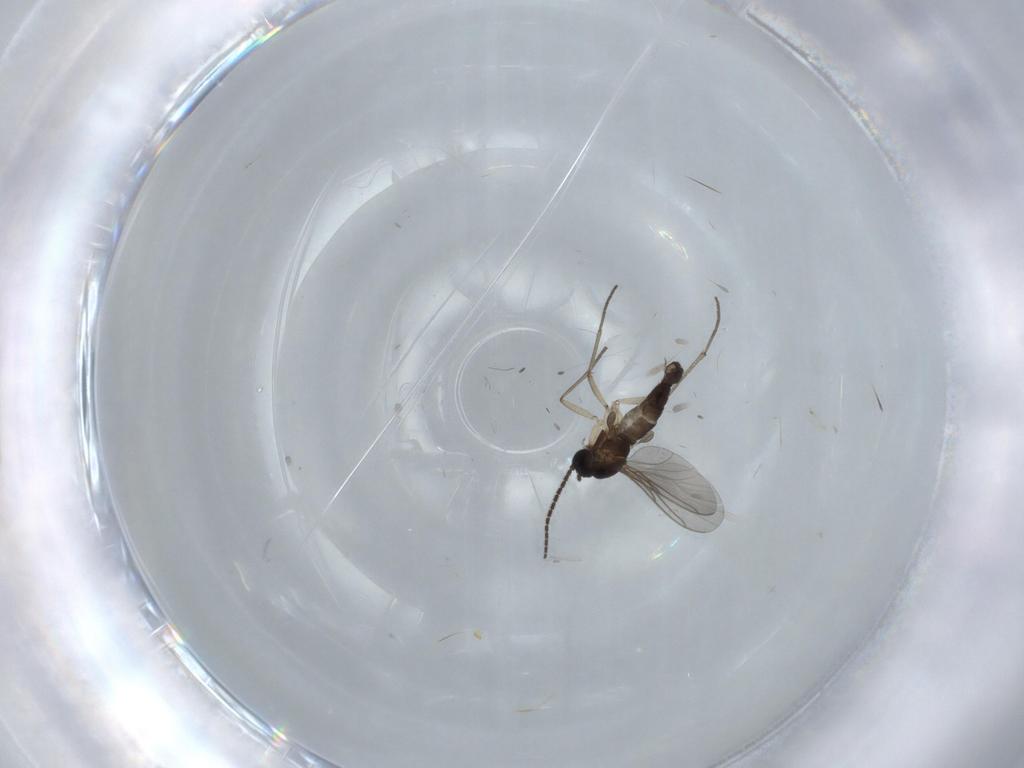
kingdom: Animalia
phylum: Arthropoda
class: Insecta
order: Diptera
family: Sciaridae
